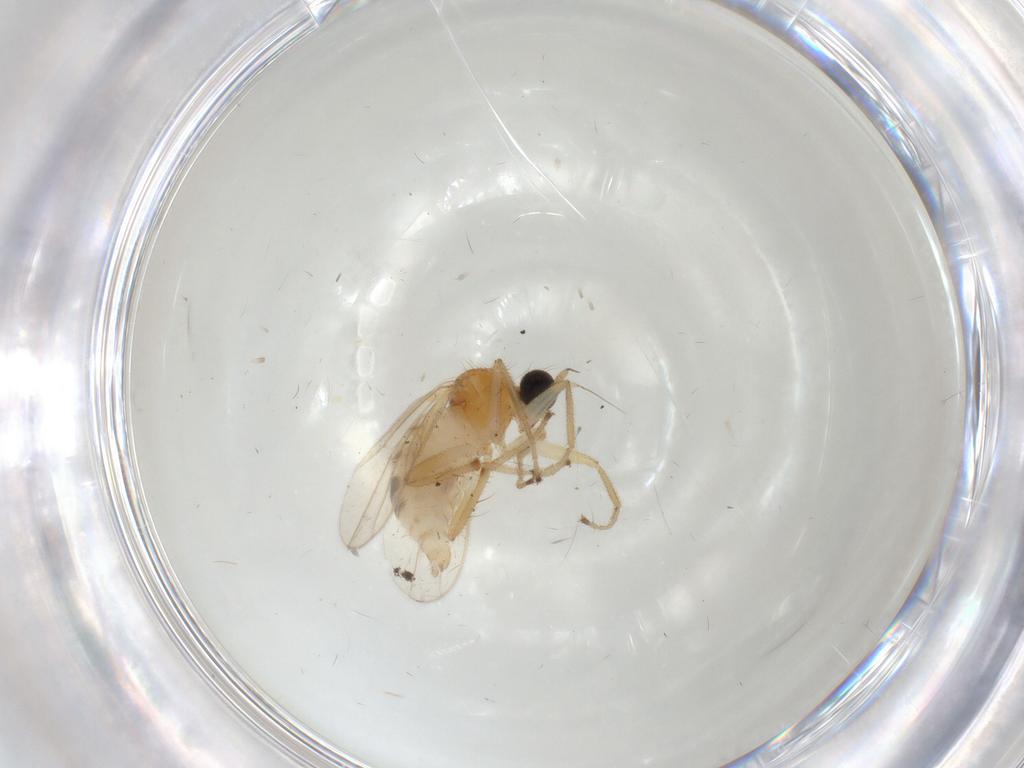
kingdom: Animalia
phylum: Arthropoda
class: Insecta
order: Diptera
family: Hybotidae
